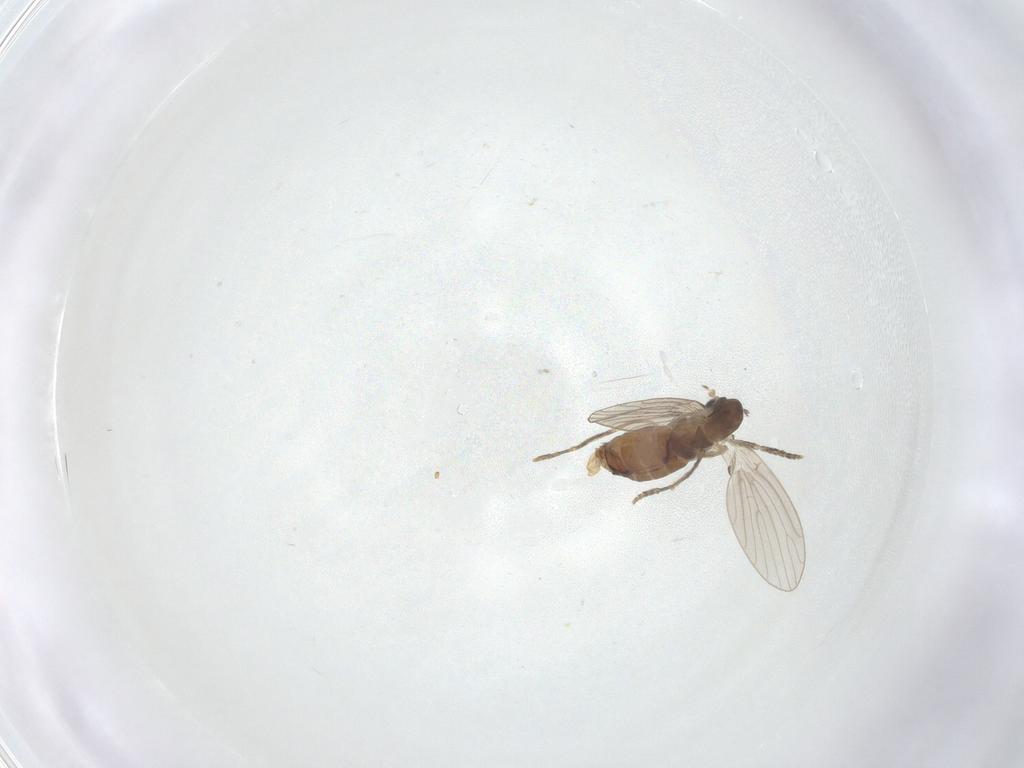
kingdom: Animalia
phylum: Arthropoda
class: Insecta
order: Diptera
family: Psychodidae
